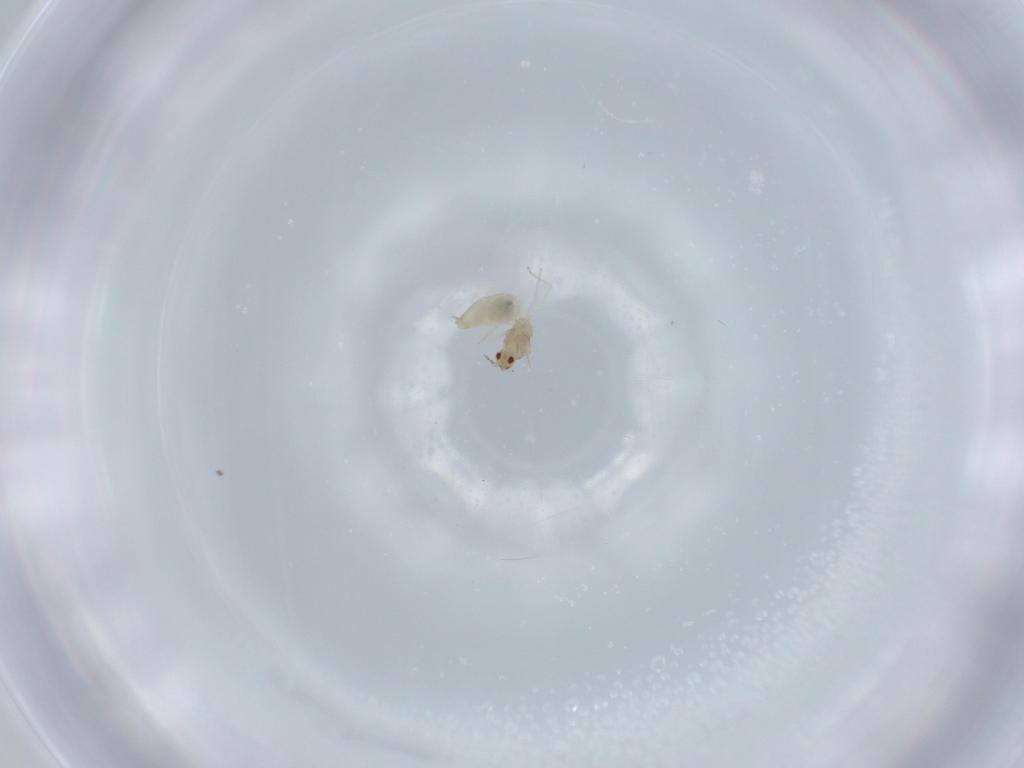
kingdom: Animalia
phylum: Arthropoda
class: Insecta
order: Diptera
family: Cecidomyiidae
